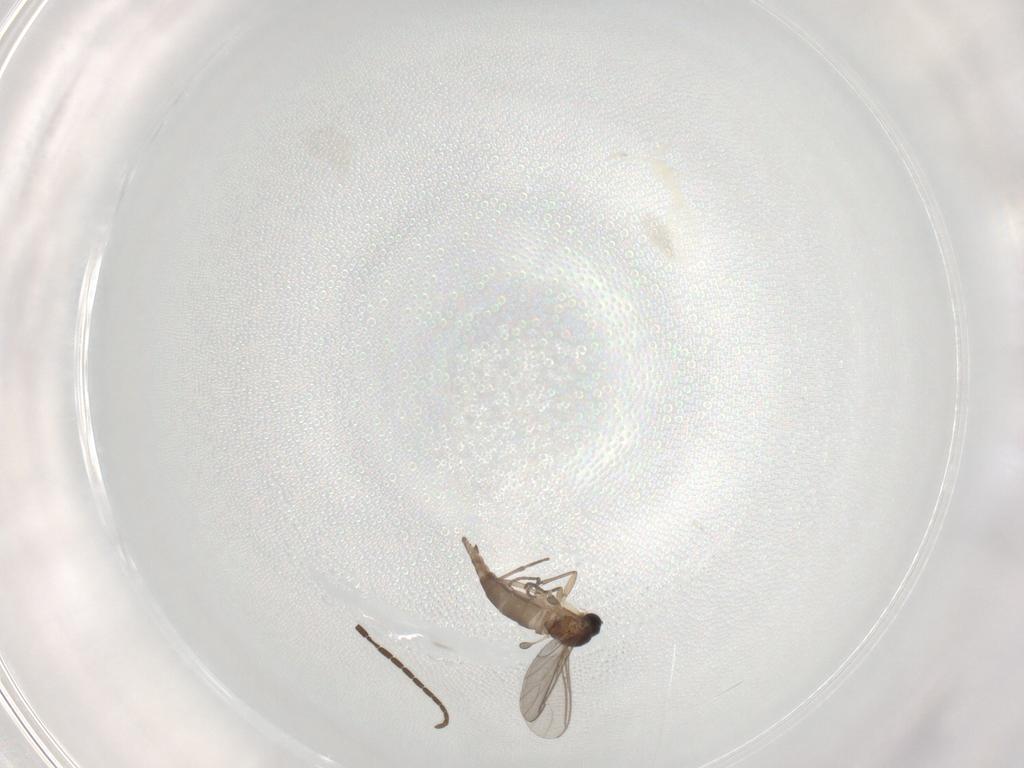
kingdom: Animalia
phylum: Arthropoda
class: Insecta
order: Diptera
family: Mycetophilidae
